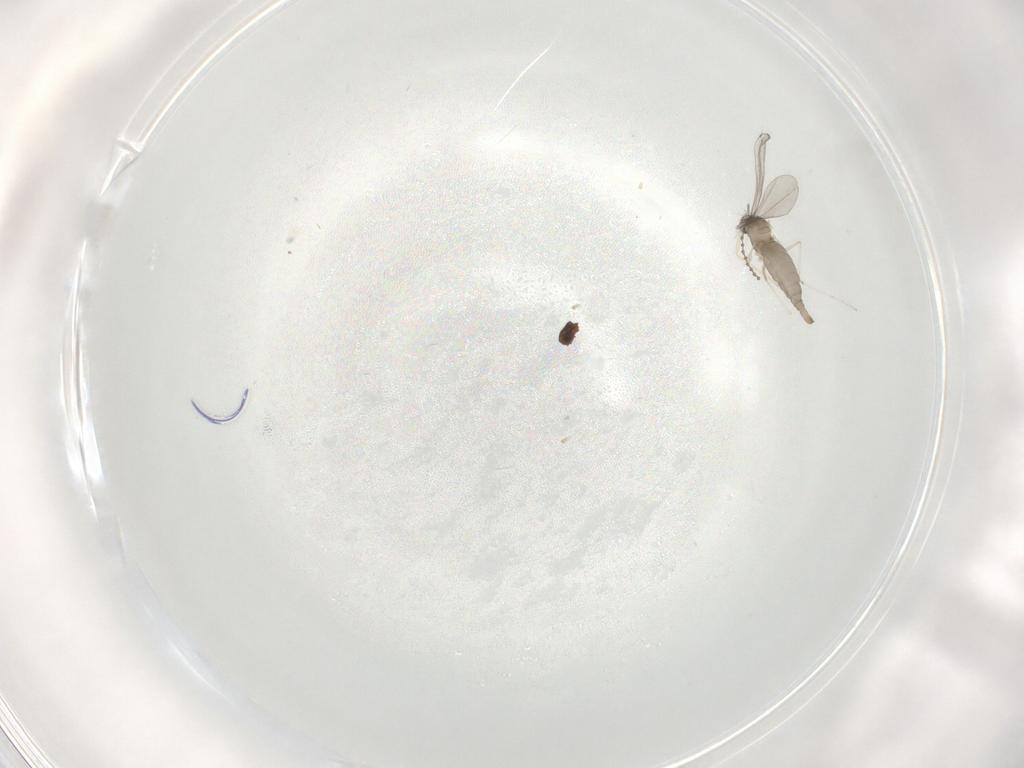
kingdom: Animalia
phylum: Arthropoda
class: Insecta
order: Diptera
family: Cecidomyiidae
